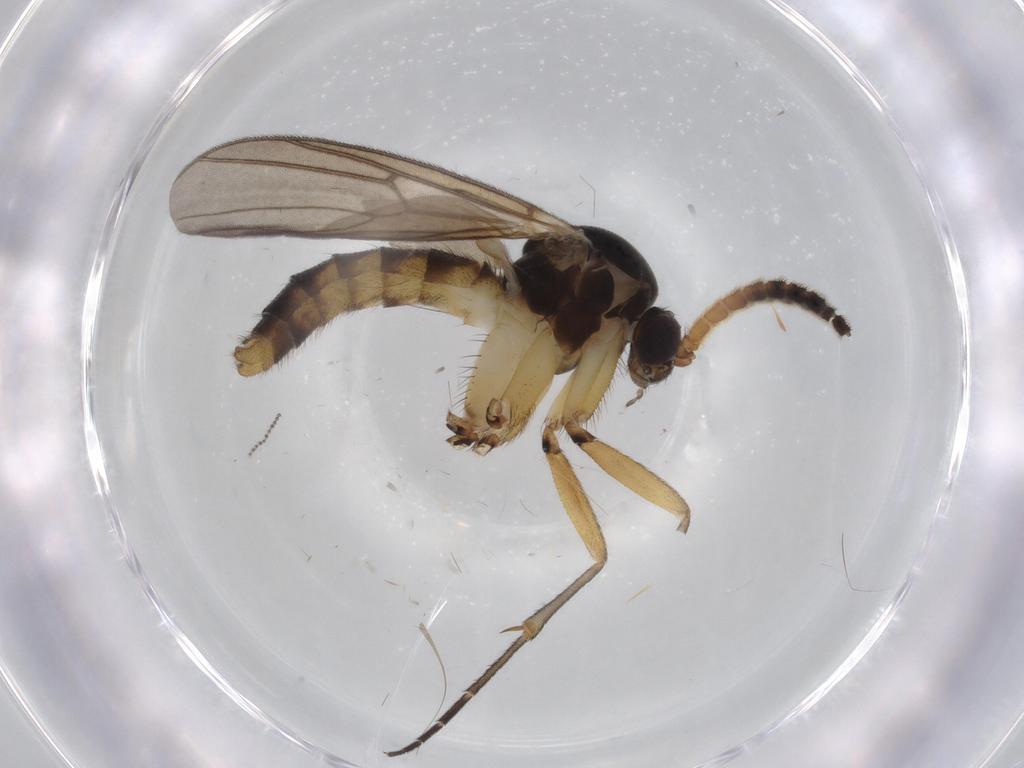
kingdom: Animalia
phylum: Arthropoda
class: Insecta
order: Diptera
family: Chironomidae
